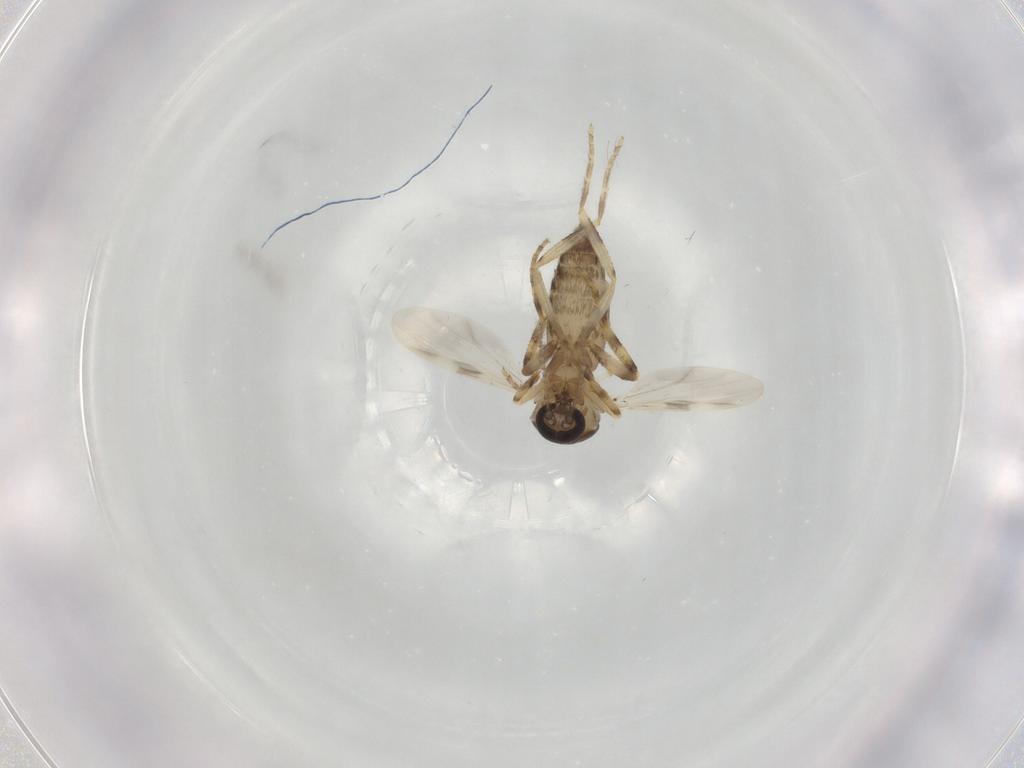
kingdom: Animalia
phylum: Arthropoda
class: Insecta
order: Diptera
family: Ceratopogonidae
